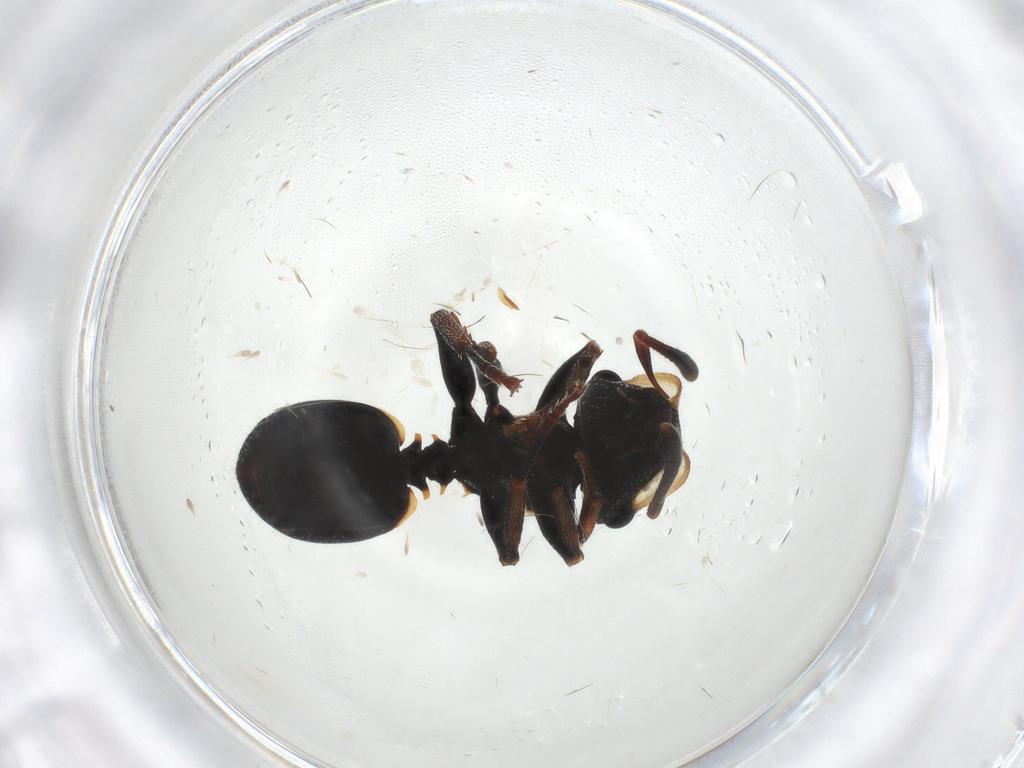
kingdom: Animalia
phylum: Arthropoda
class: Insecta
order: Hymenoptera
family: Formicidae
